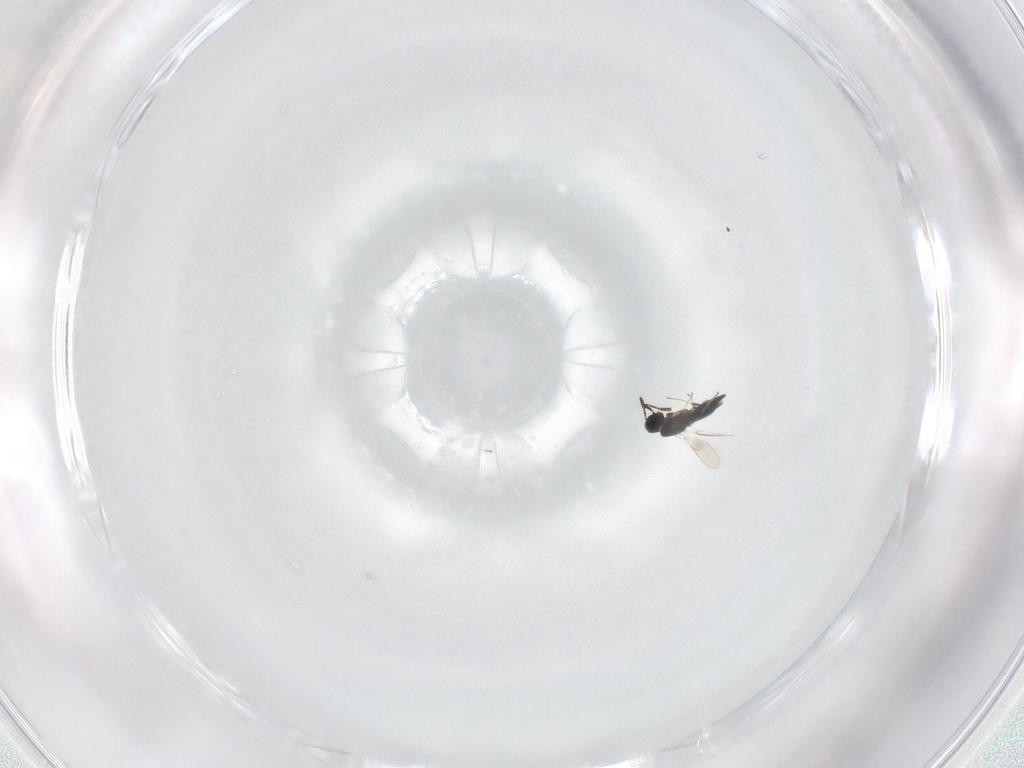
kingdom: Animalia
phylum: Arthropoda
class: Insecta
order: Hymenoptera
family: Scelionidae
